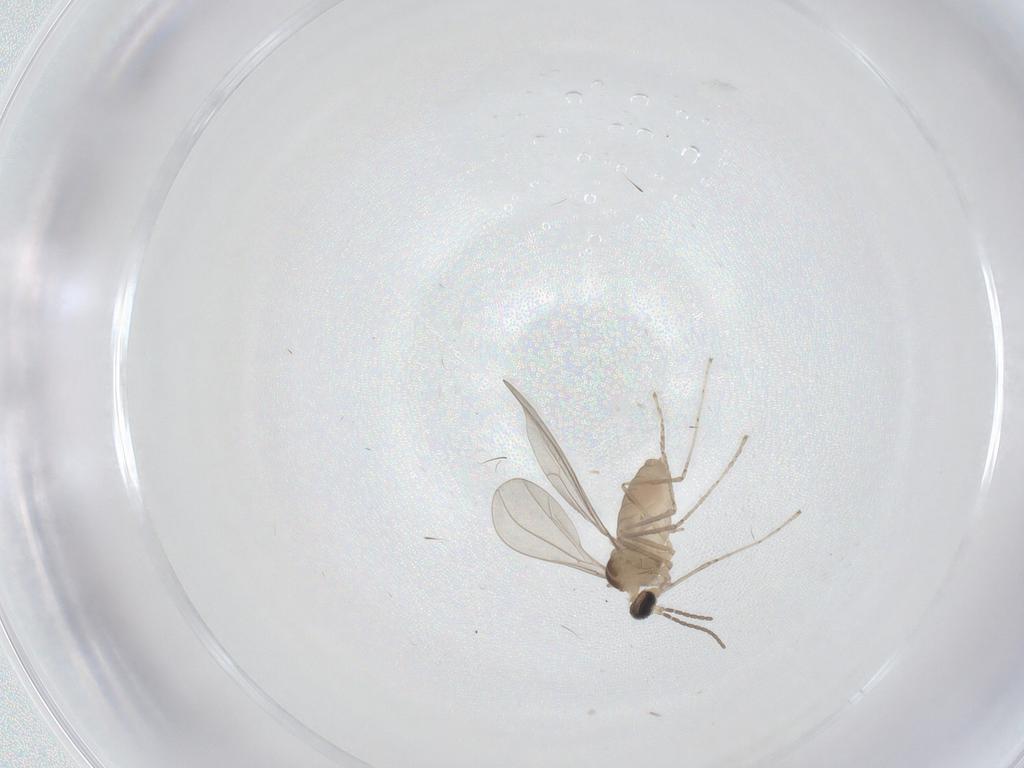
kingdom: Animalia
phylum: Arthropoda
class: Insecta
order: Diptera
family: Cecidomyiidae
